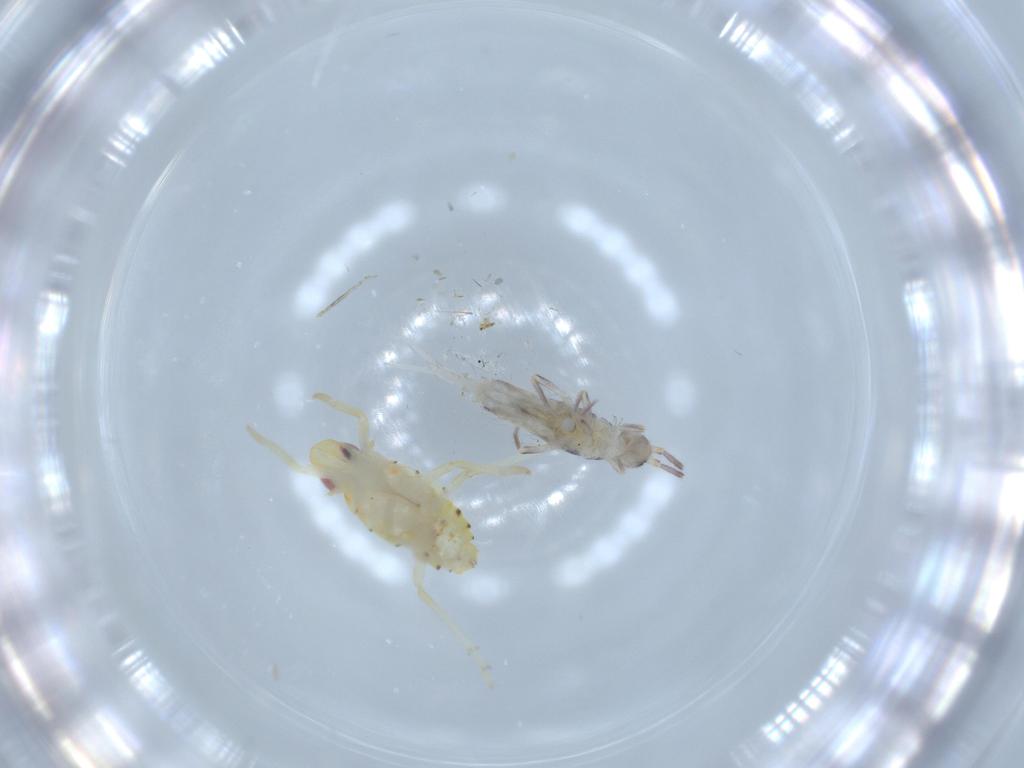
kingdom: Animalia
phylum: Arthropoda
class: Insecta
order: Hemiptera
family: Tropiduchidae
